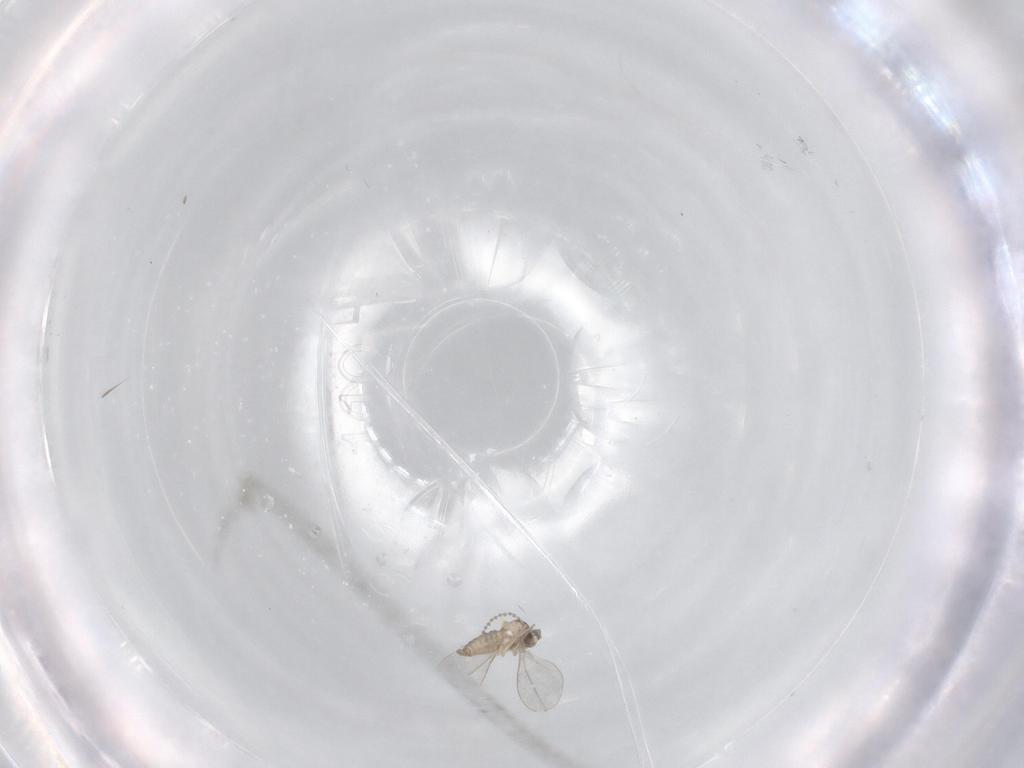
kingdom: Animalia
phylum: Arthropoda
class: Insecta
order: Diptera
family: Cecidomyiidae
